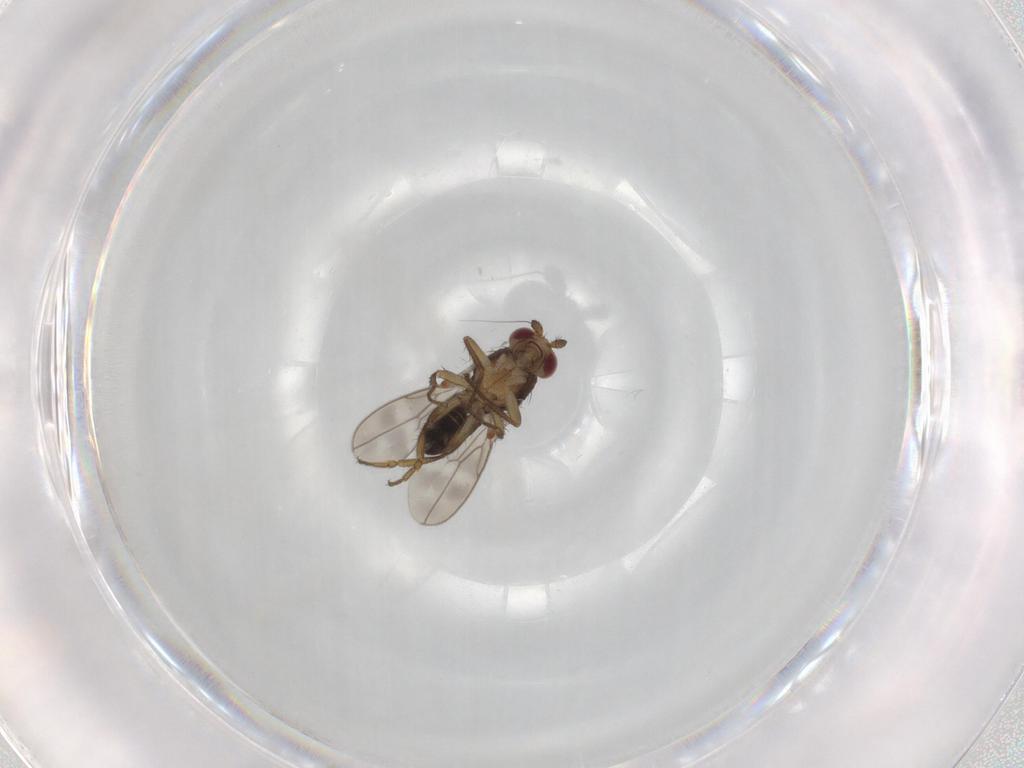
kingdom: Animalia
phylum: Arthropoda
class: Insecta
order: Diptera
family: Sphaeroceridae
